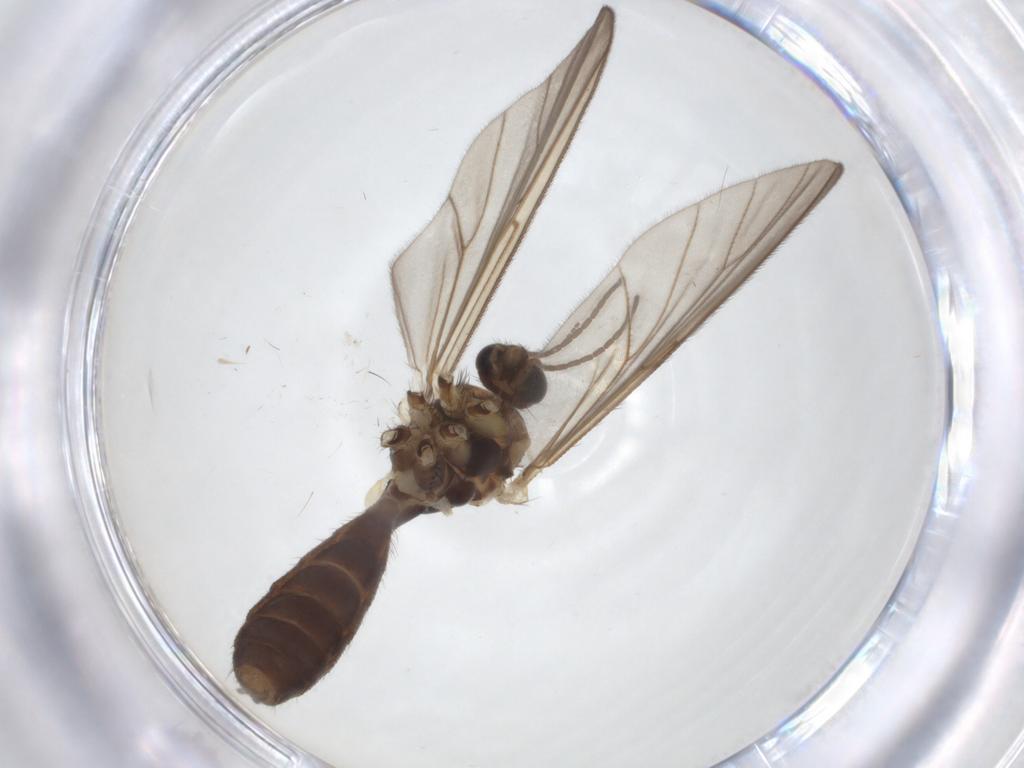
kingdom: Animalia
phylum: Arthropoda
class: Insecta
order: Diptera
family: Mycetophilidae
